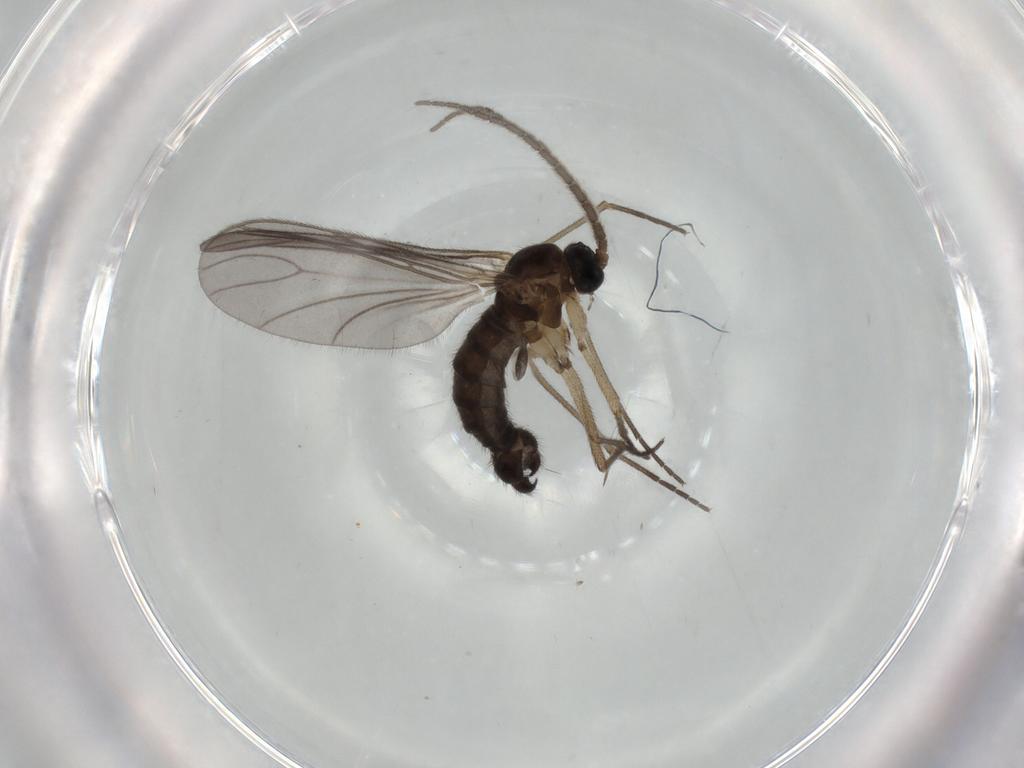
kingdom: Animalia
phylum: Arthropoda
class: Insecta
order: Diptera
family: Sciaridae
